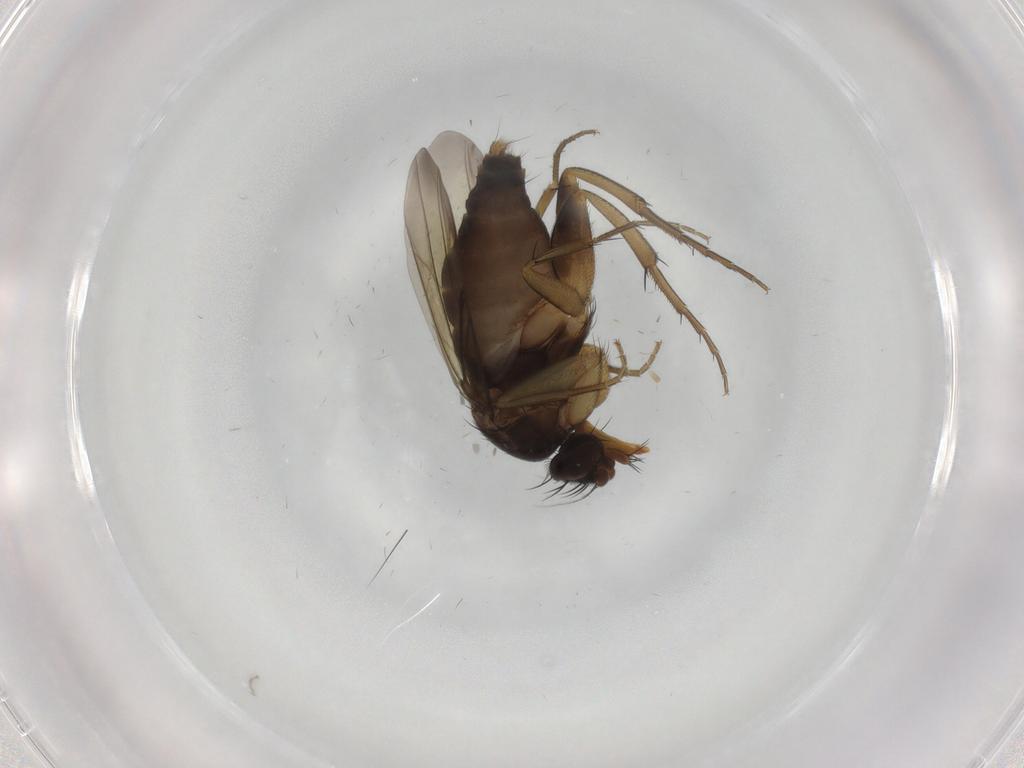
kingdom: Animalia
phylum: Arthropoda
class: Insecta
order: Diptera
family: Phoridae
